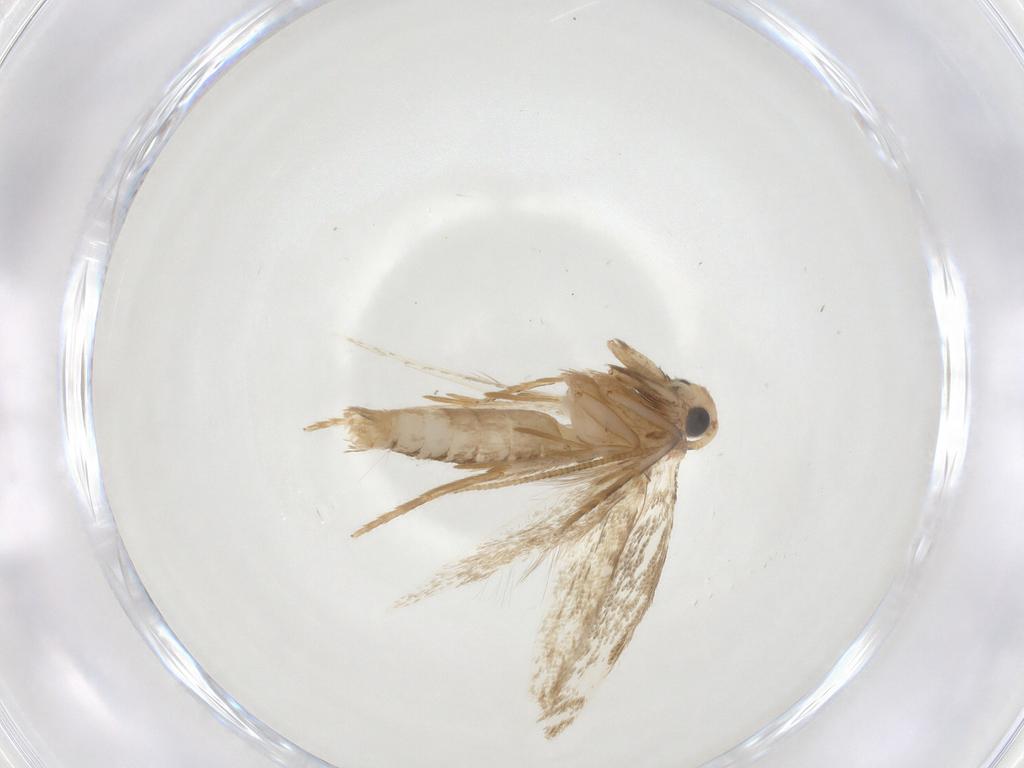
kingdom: Animalia
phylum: Arthropoda
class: Insecta
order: Lepidoptera
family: Tineidae
